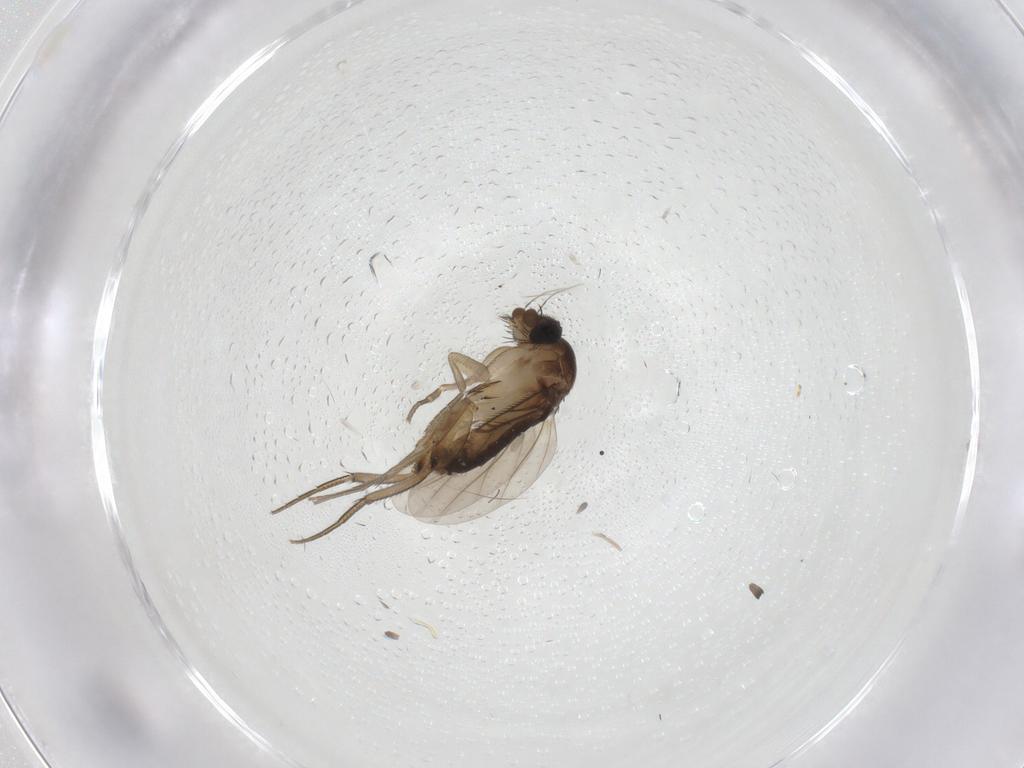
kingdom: Animalia
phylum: Arthropoda
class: Insecta
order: Diptera
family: Phoridae
